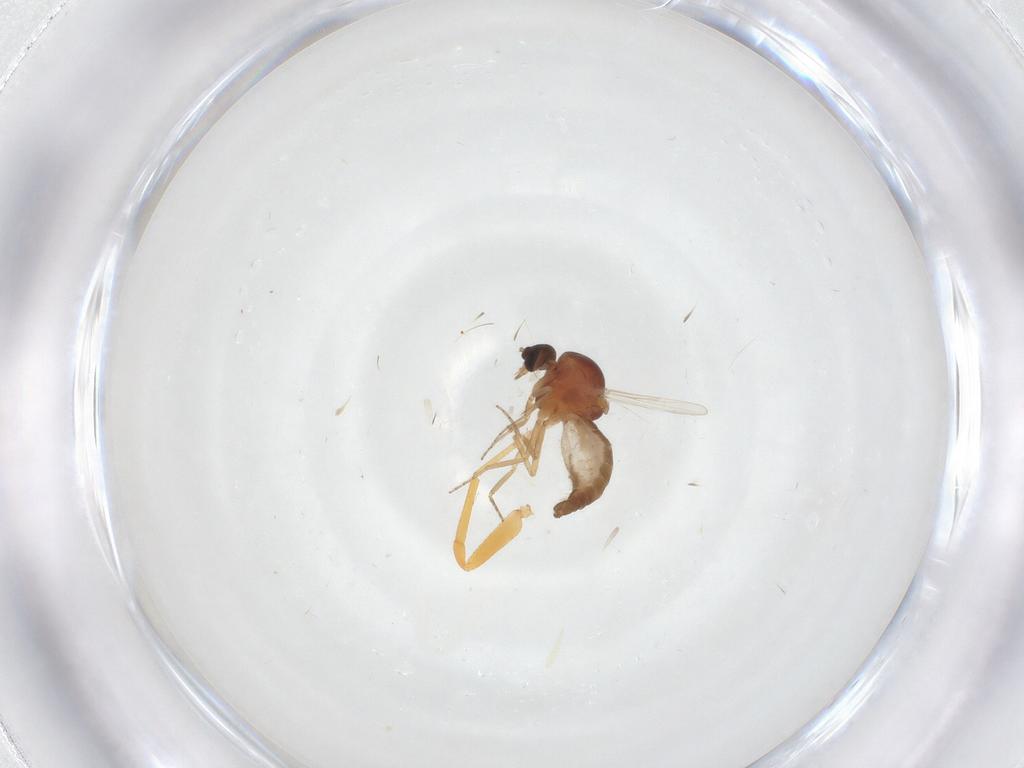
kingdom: Animalia
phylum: Arthropoda
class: Insecta
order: Diptera
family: Ceratopogonidae
